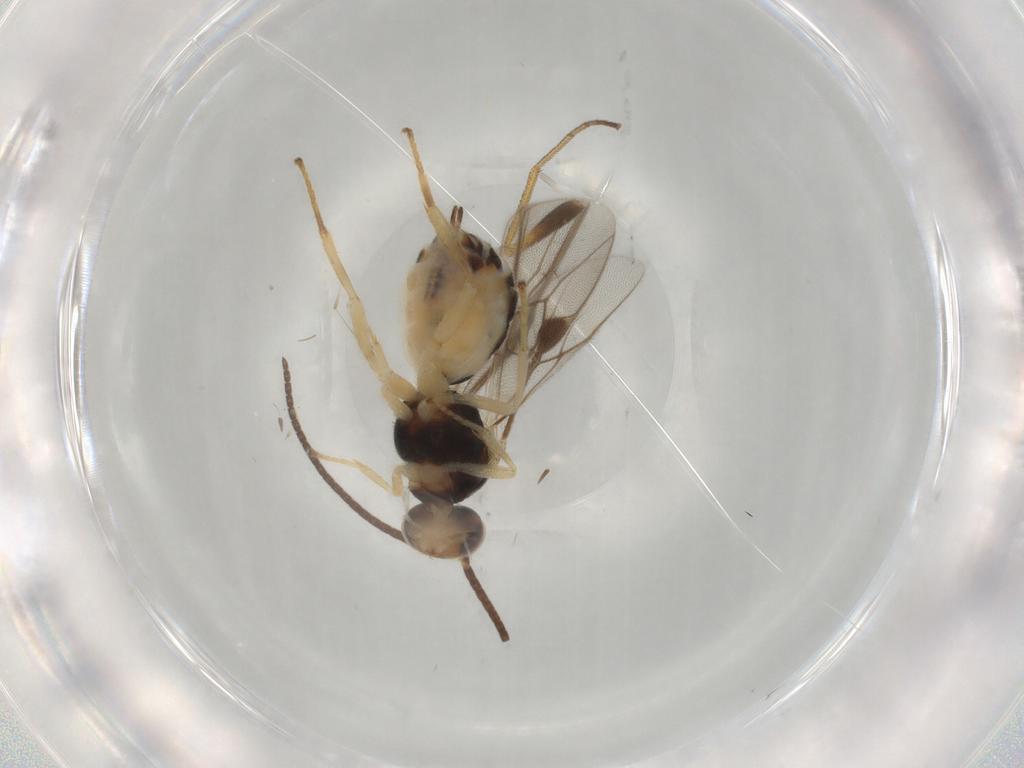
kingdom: Animalia
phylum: Arthropoda
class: Insecta
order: Hymenoptera
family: Braconidae
